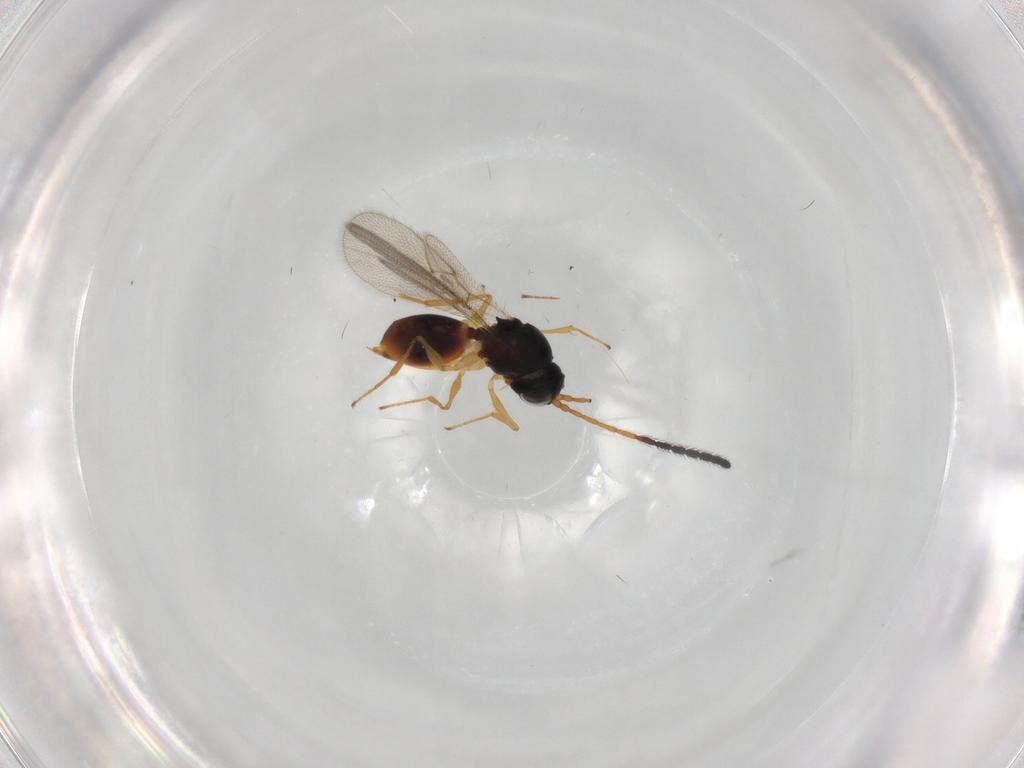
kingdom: Animalia
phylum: Arthropoda
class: Insecta
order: Hymenoptera
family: Figitidae
